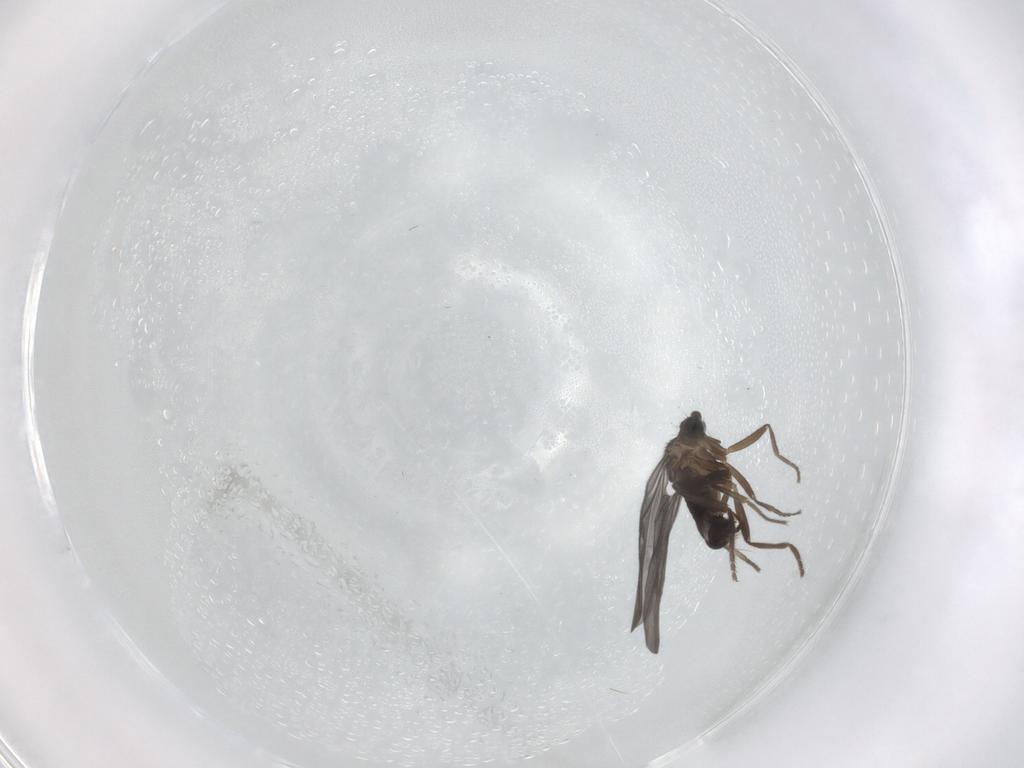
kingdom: Animalia
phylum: Arthropoda
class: Insecta
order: Diptera
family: Phoridae
